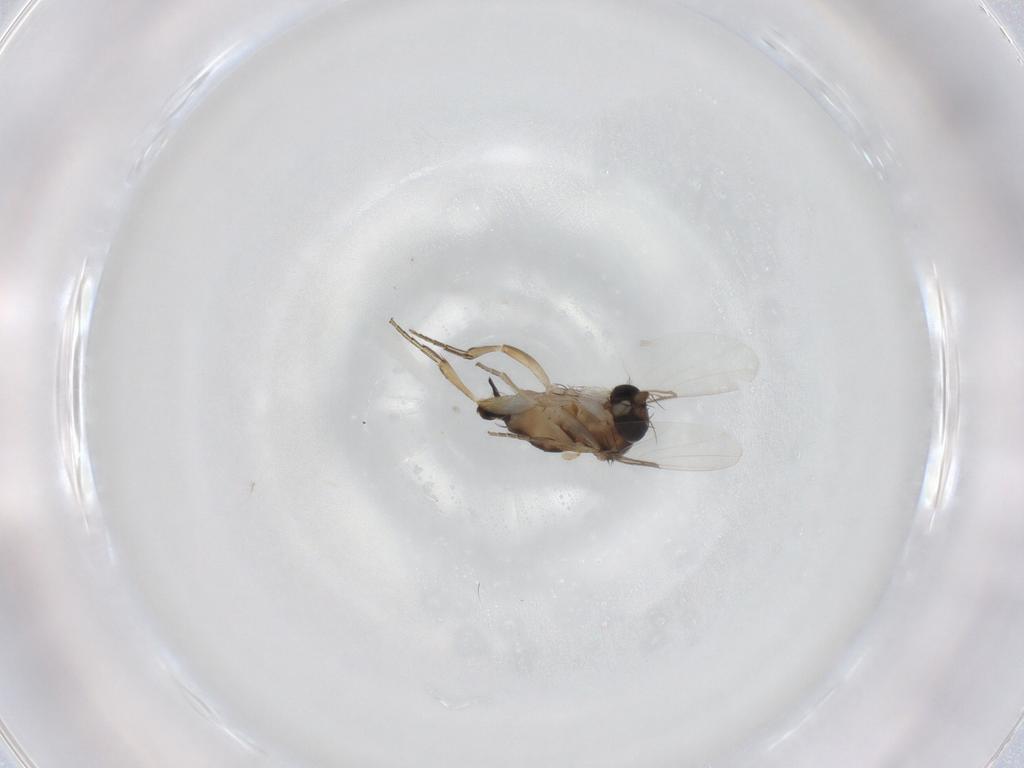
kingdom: Animalia
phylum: Arthropoda
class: Insecta
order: Diptera
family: Phoridae
